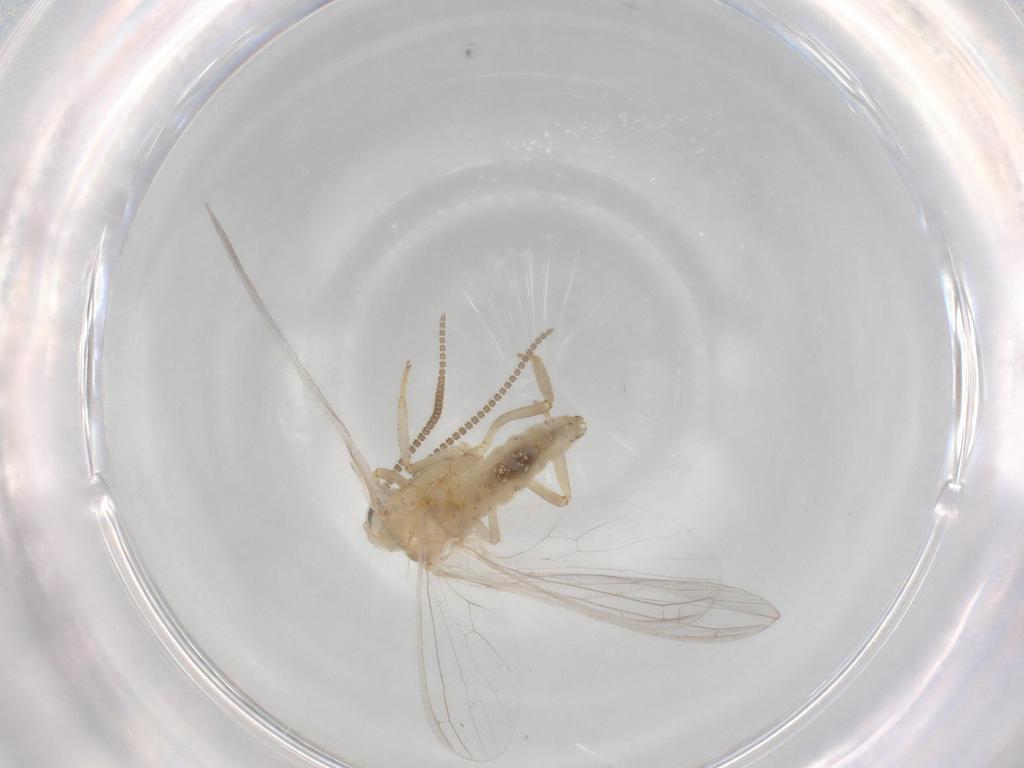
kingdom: Animalia
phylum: Arthropoda
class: Insecta
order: Neuroptera
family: Coniopterygidae
